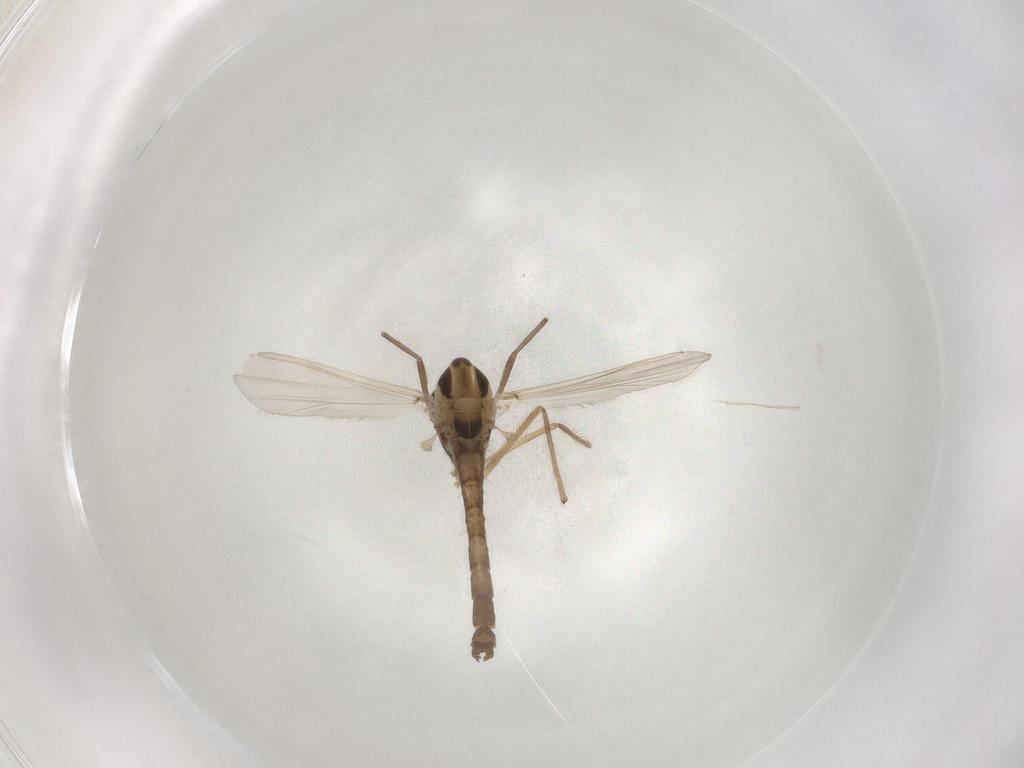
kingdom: Animalia
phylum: Arthropoda
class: Insecta
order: Diptera
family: Chironomidae
